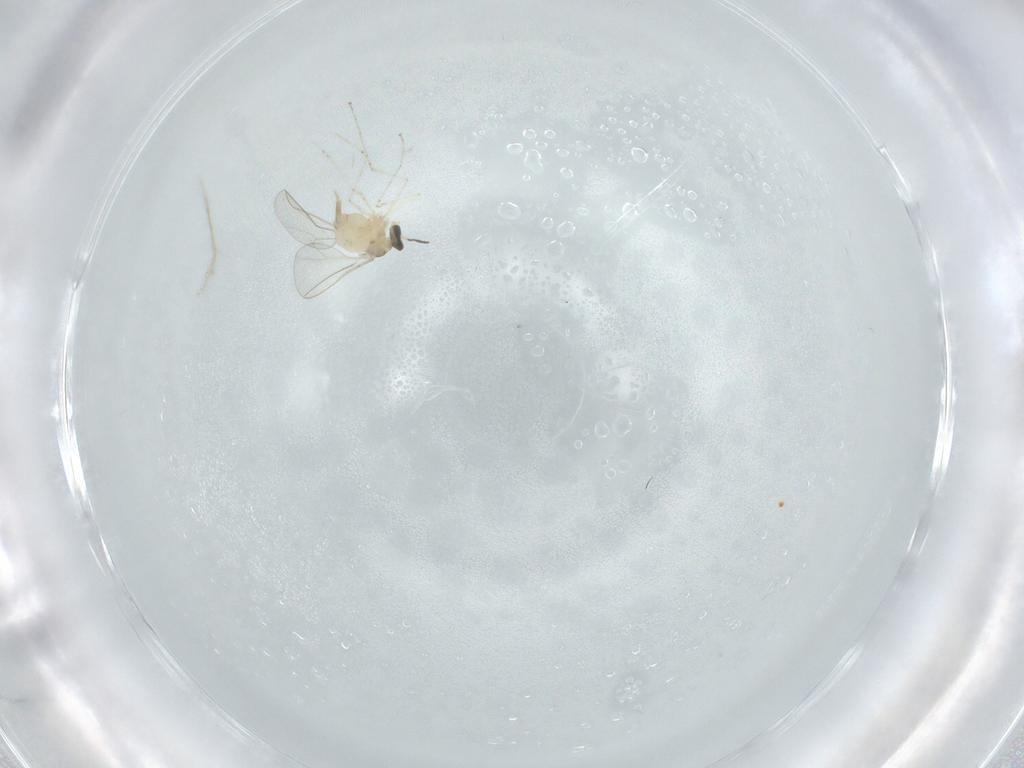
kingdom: Animalia
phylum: Arthropoda
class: Insecta
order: Diptera
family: Cecidomyiidae
